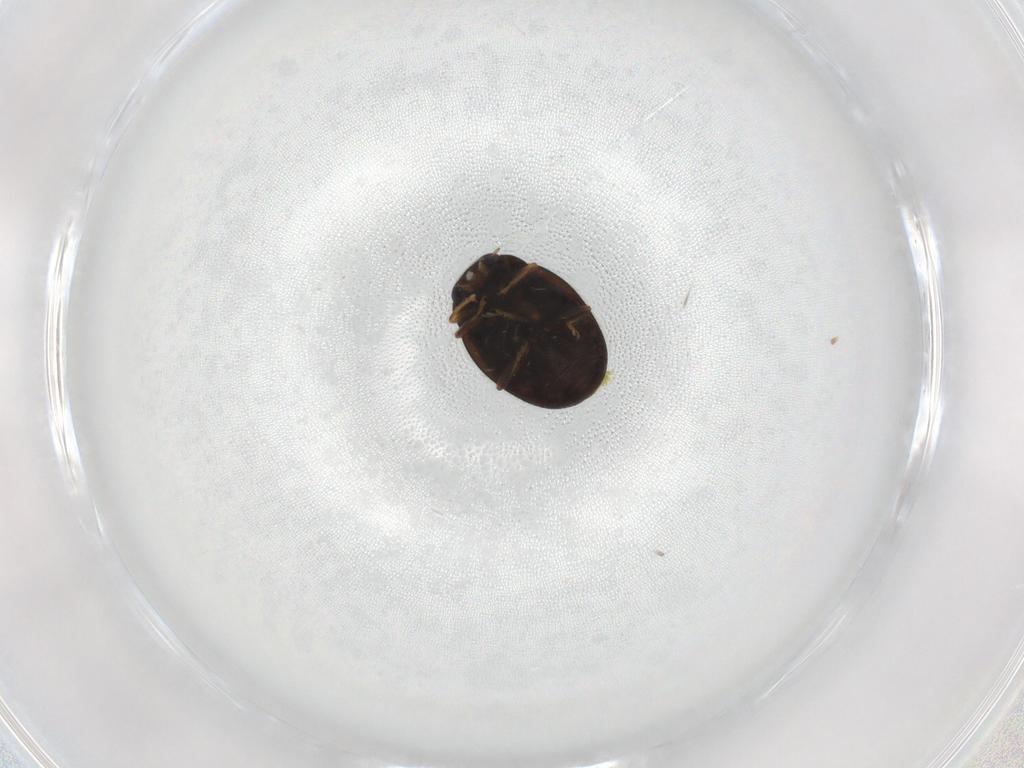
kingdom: Animalia
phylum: Arthropoda
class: Insecta
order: Coleoptera
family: Coccinellidae
